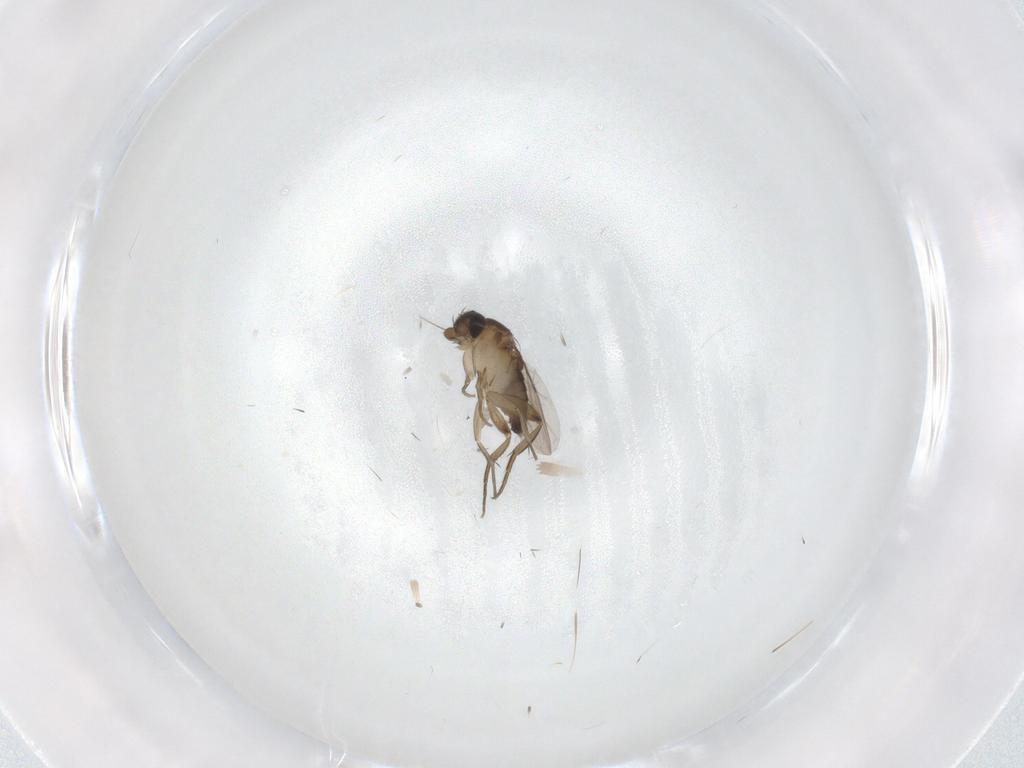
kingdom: Animalia
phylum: Arthropoda
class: Insecta
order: Diptera
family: Phoridae
